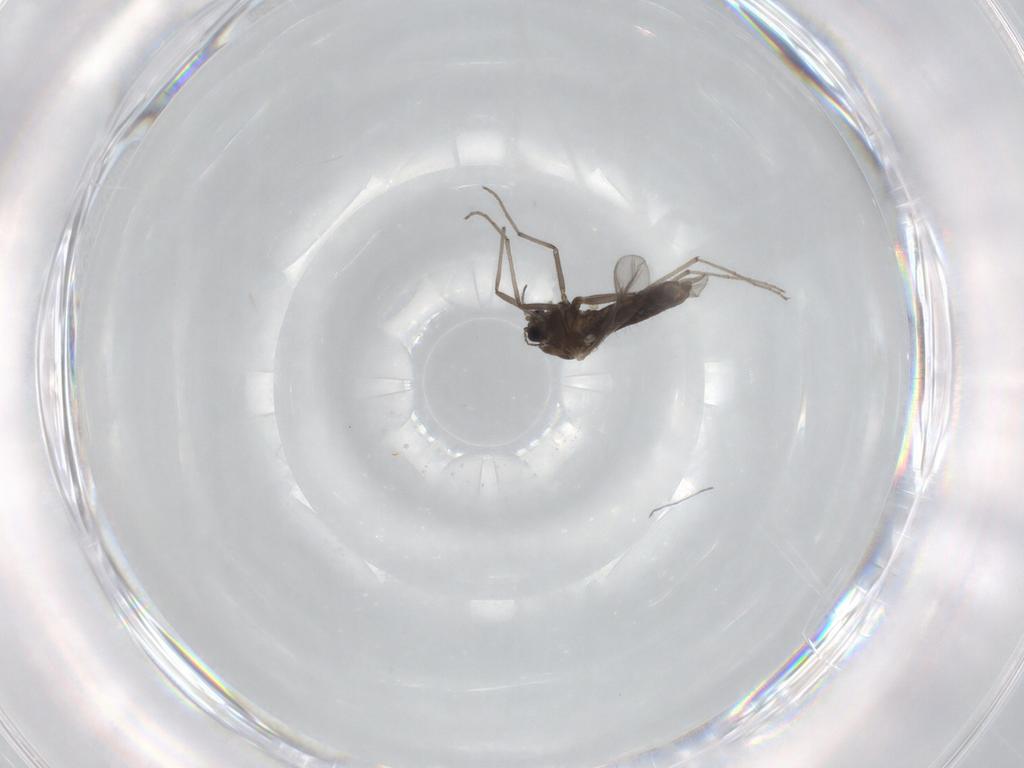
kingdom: Animalia
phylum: Arthropoda
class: Insecta
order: Diptera
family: Chironomidae
